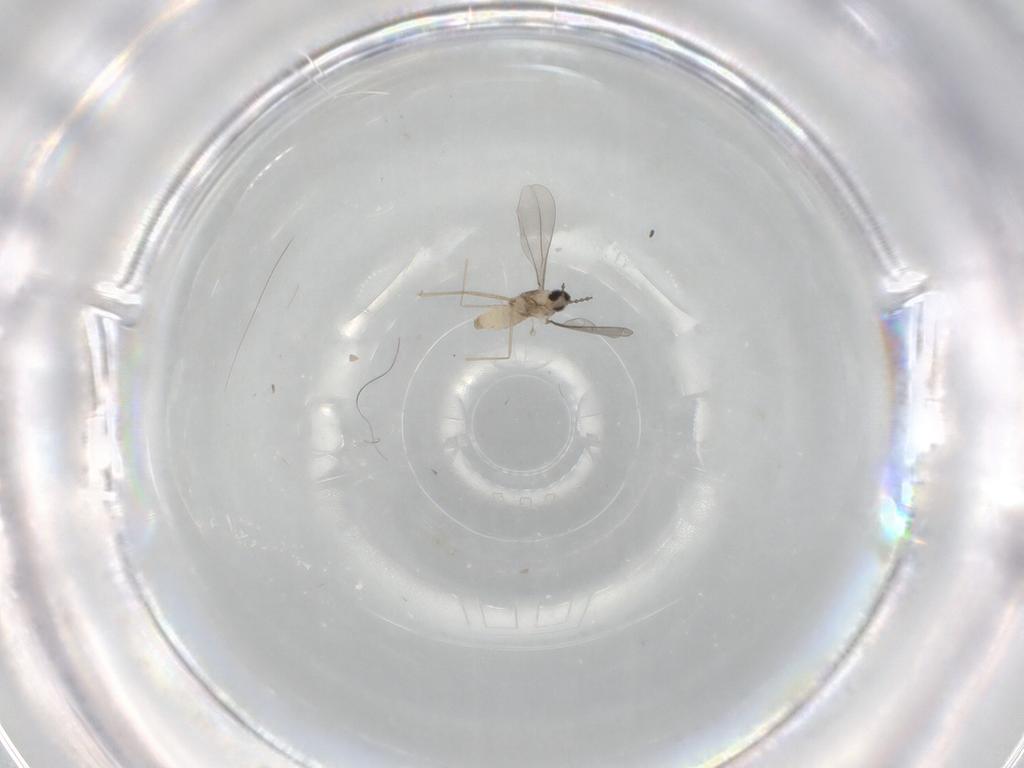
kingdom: Animalia
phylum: Arthropoda
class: Insecta
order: Diptera
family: Cecidomyiidae
